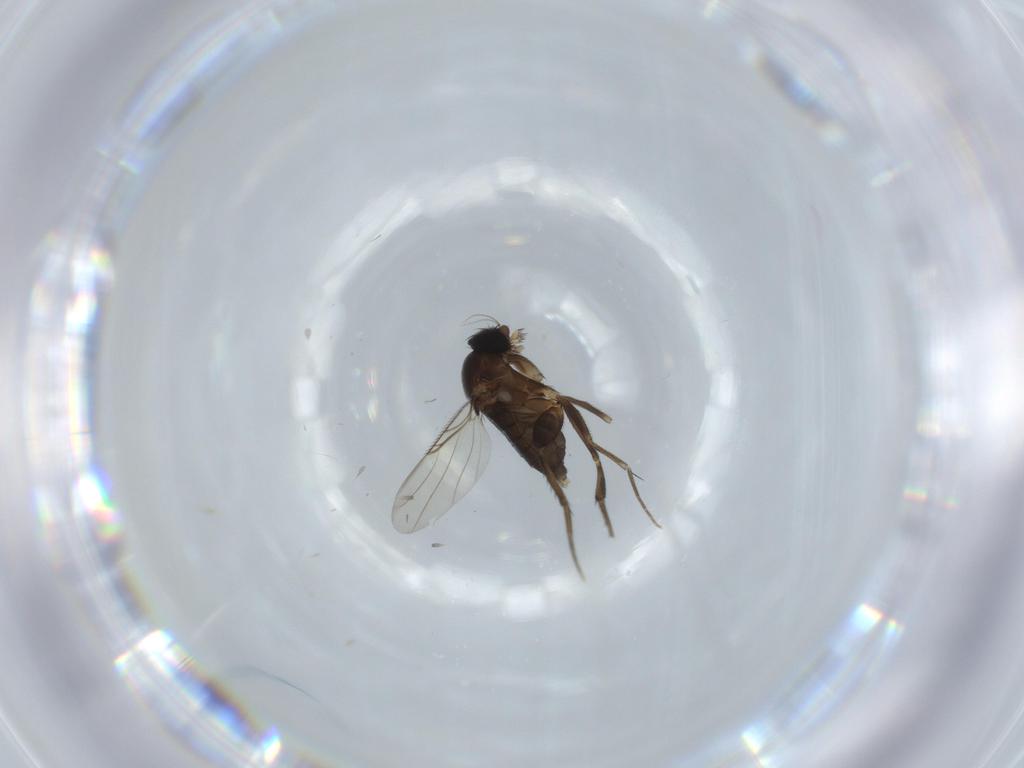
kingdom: Animalia
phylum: Arthropoda
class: Insecta
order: Diptera
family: Phoridae
